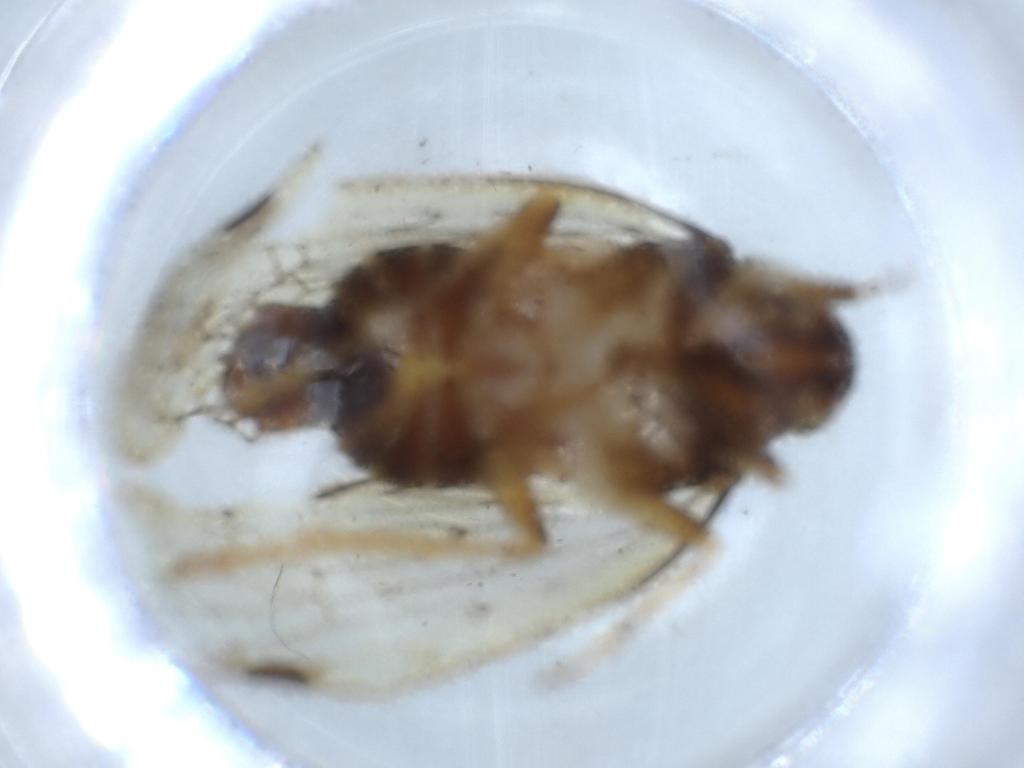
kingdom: Animalia
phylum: Arthropoda
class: Insecta
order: Hemiptera
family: Cixiidae
